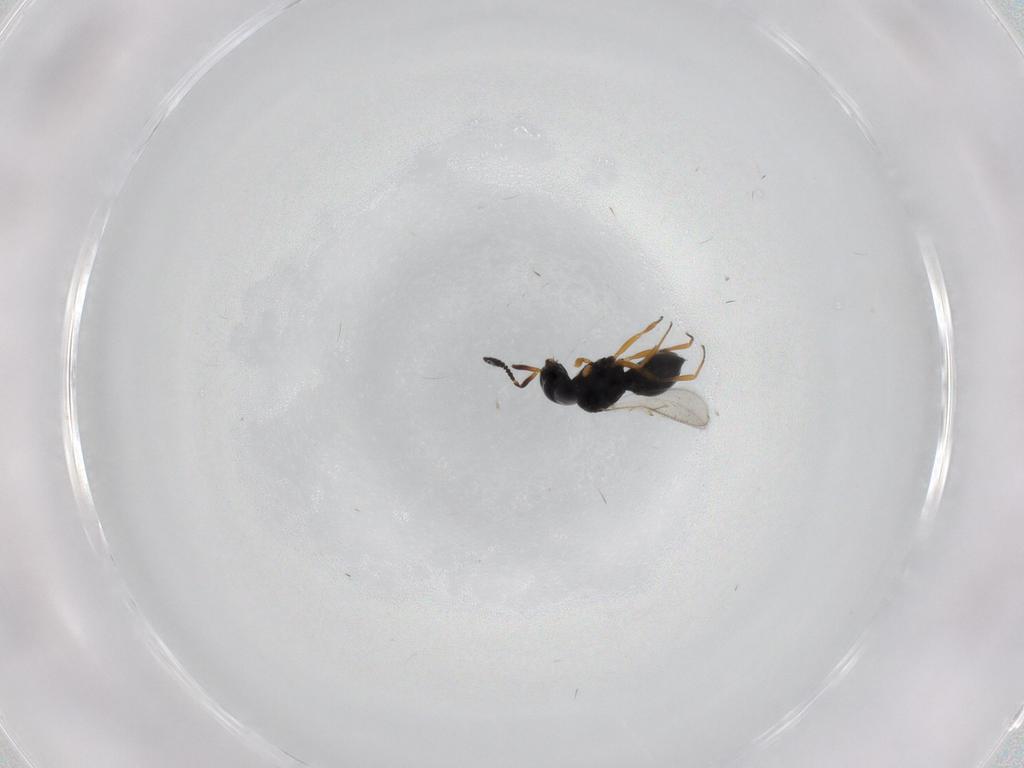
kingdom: Animalia
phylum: Arthropoda
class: Insecta
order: Hymenoptera
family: Scelionidae
